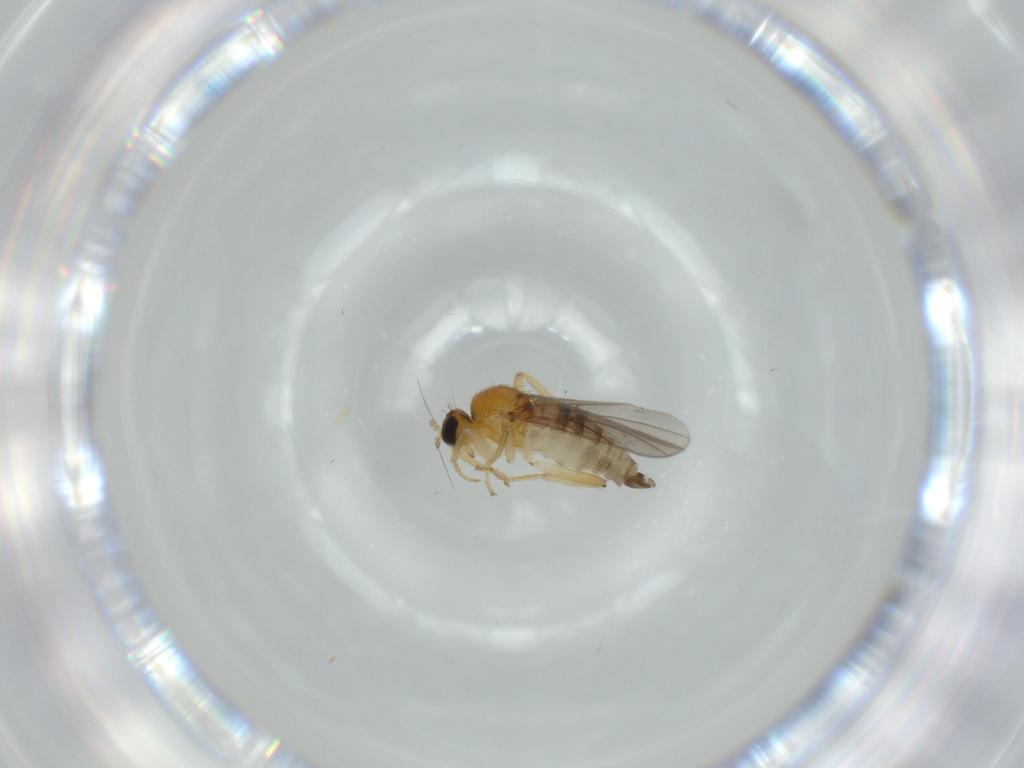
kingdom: Animalia
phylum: Arthropoda
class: Insecta
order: Diptera
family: Hybotidae
